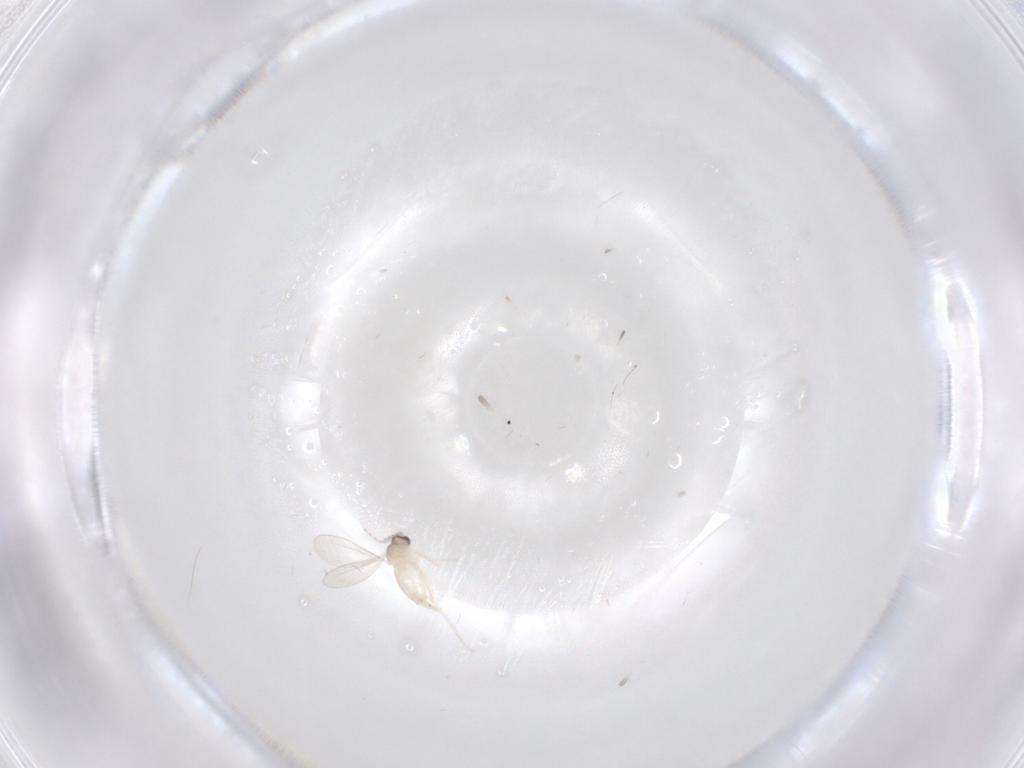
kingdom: Animalia
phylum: Arthropoda
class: Insecta
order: Diptera
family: Cecidomyiidae
